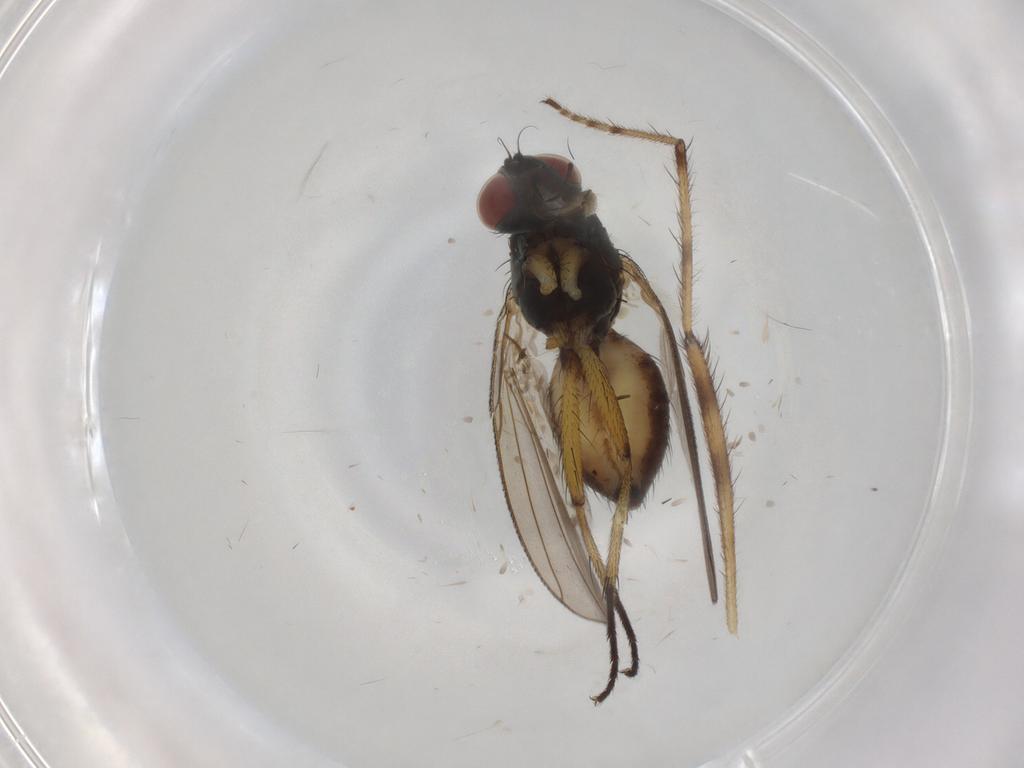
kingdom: Animalia
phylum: Arthropoda
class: Insecta
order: Diptera
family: Muscidae
